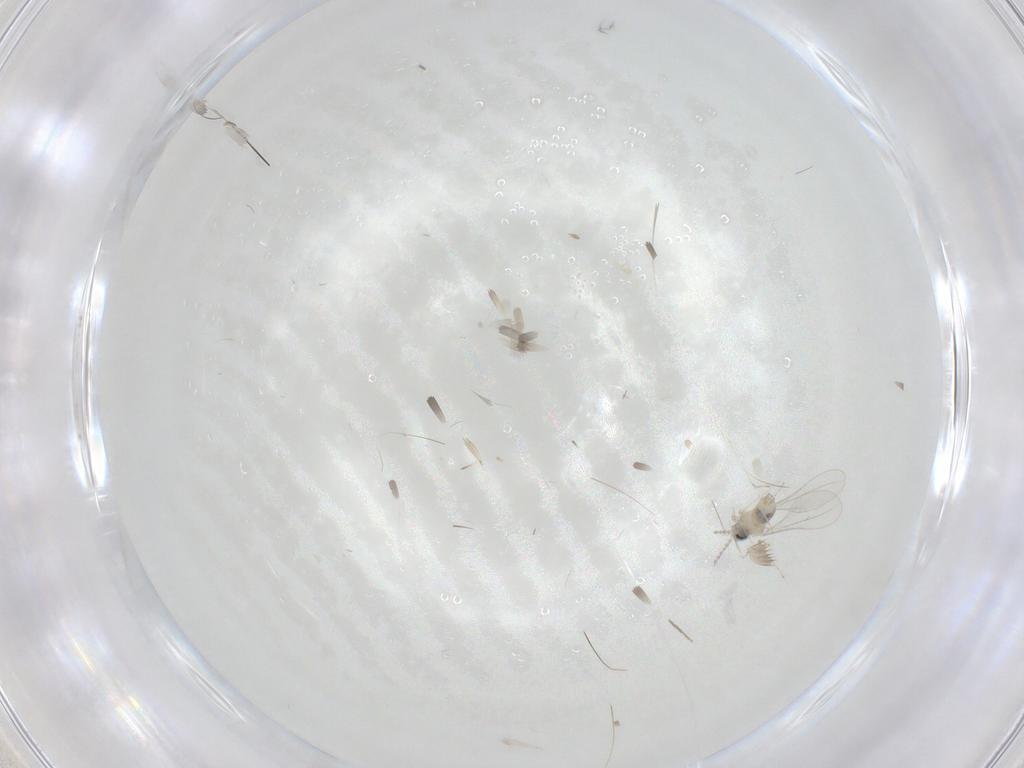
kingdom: Animalia
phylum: Arthropoda
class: Insecta
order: Diptera
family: Cecidomyiidae
